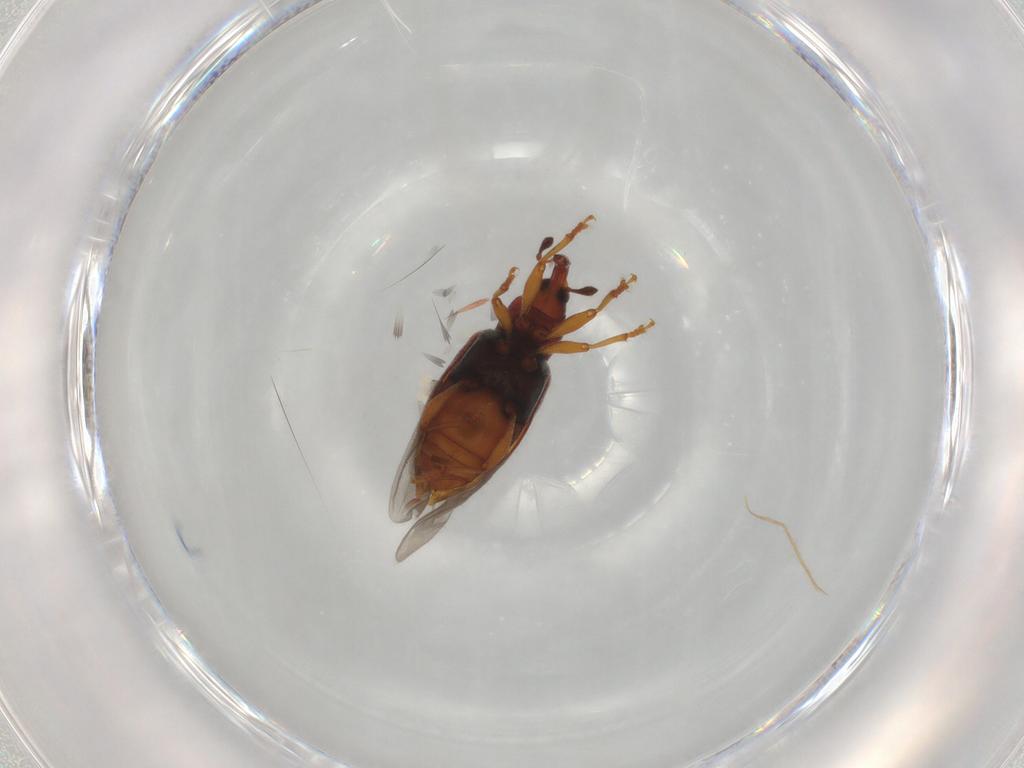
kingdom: Animalia
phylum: Arthropoda
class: Insecta
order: Coleoptera
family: Curculionidae
